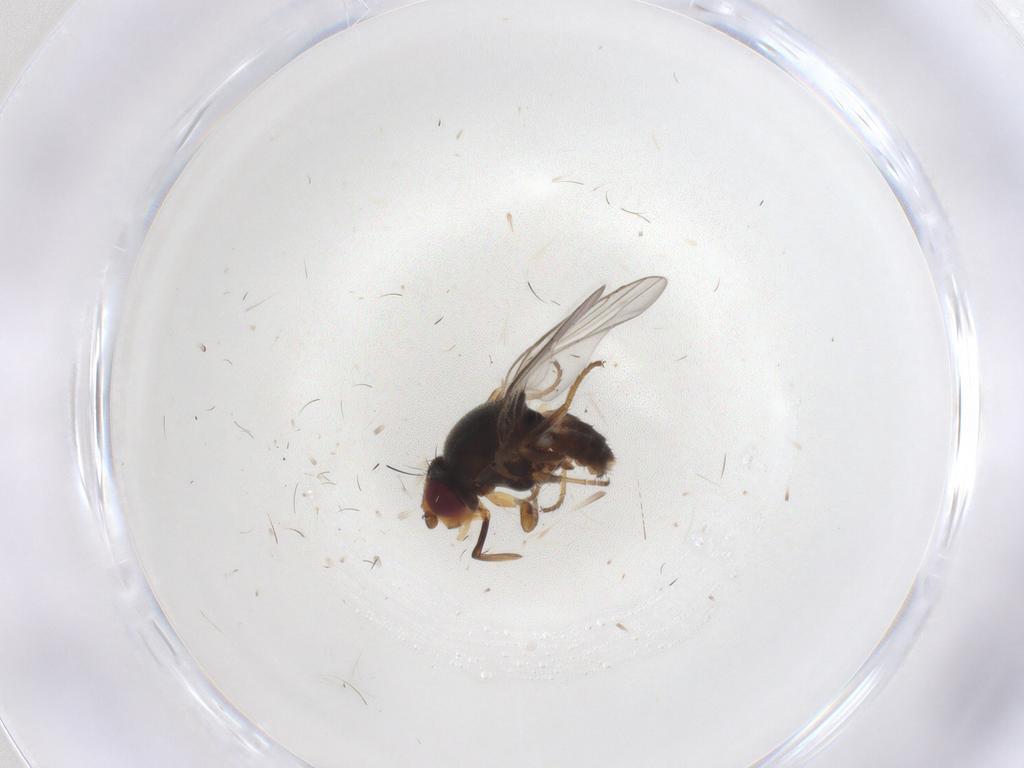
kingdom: Animalia
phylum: Arthropoda
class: Insecta
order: Diptera
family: Chloropidae
